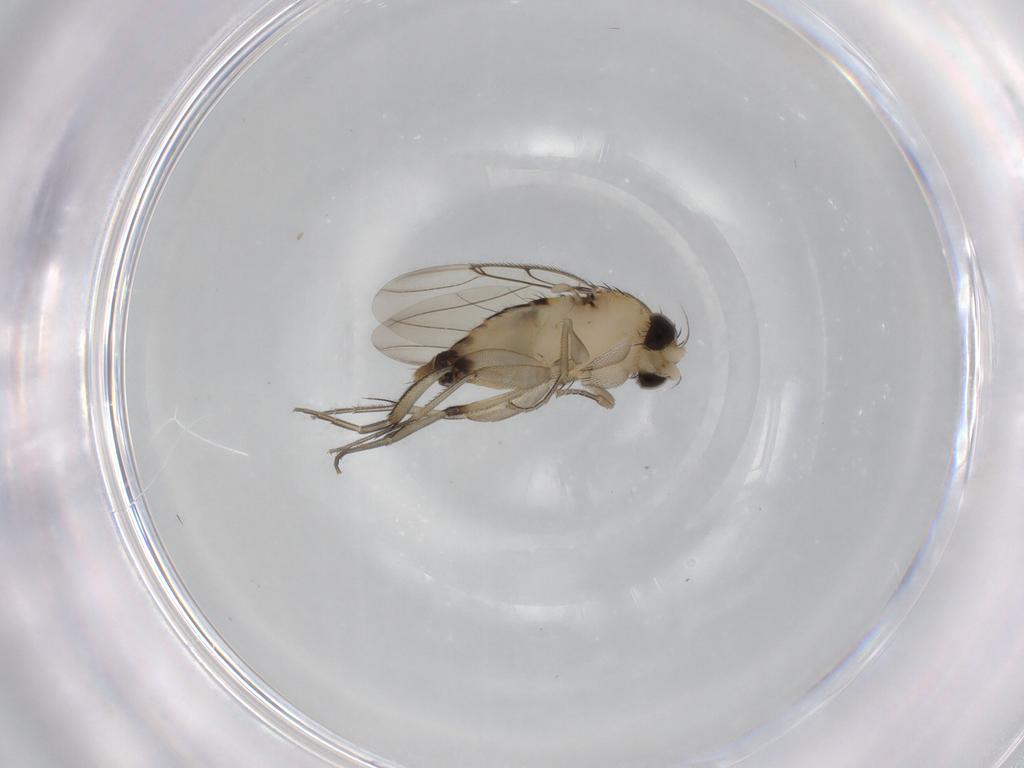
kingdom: Animalia
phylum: Arthropoda
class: Insecta
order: Diptera
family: Phoridae
